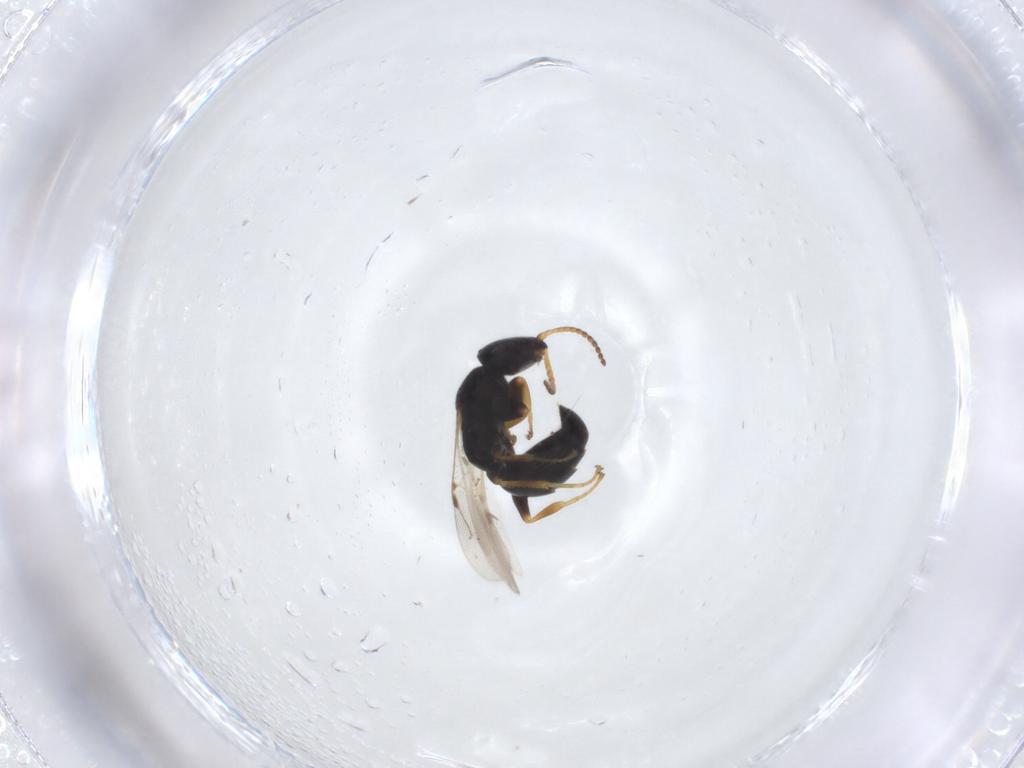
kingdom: Animalia
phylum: Arthropoda
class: Insecta
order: Hymenoptera
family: Bethylidae
